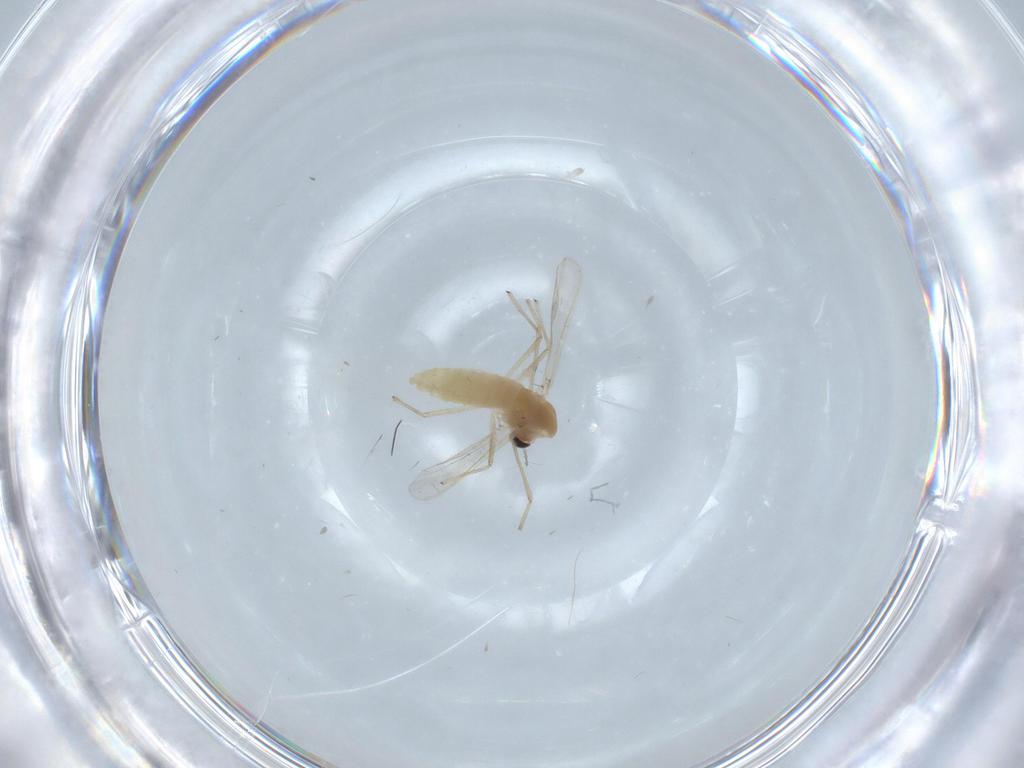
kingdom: Animalia
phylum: Arthropoda
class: Insecta
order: Diptera
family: Chironomidae
